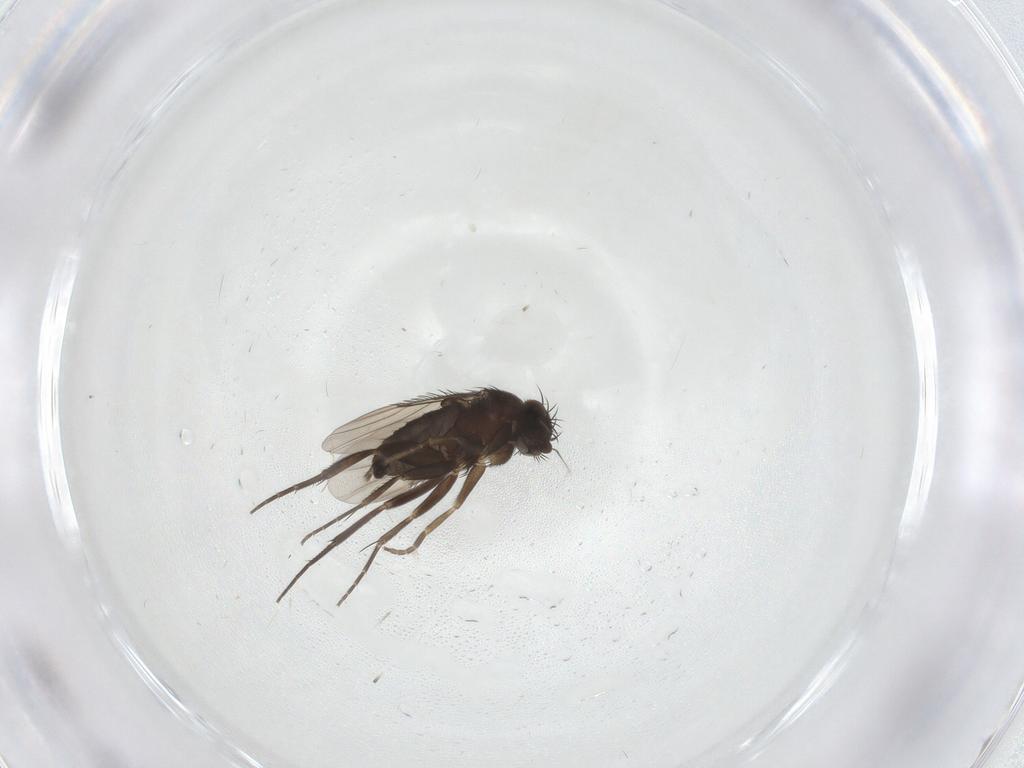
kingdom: Animalia
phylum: Arthropoda
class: Insecta
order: Diptera
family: Phoridae
